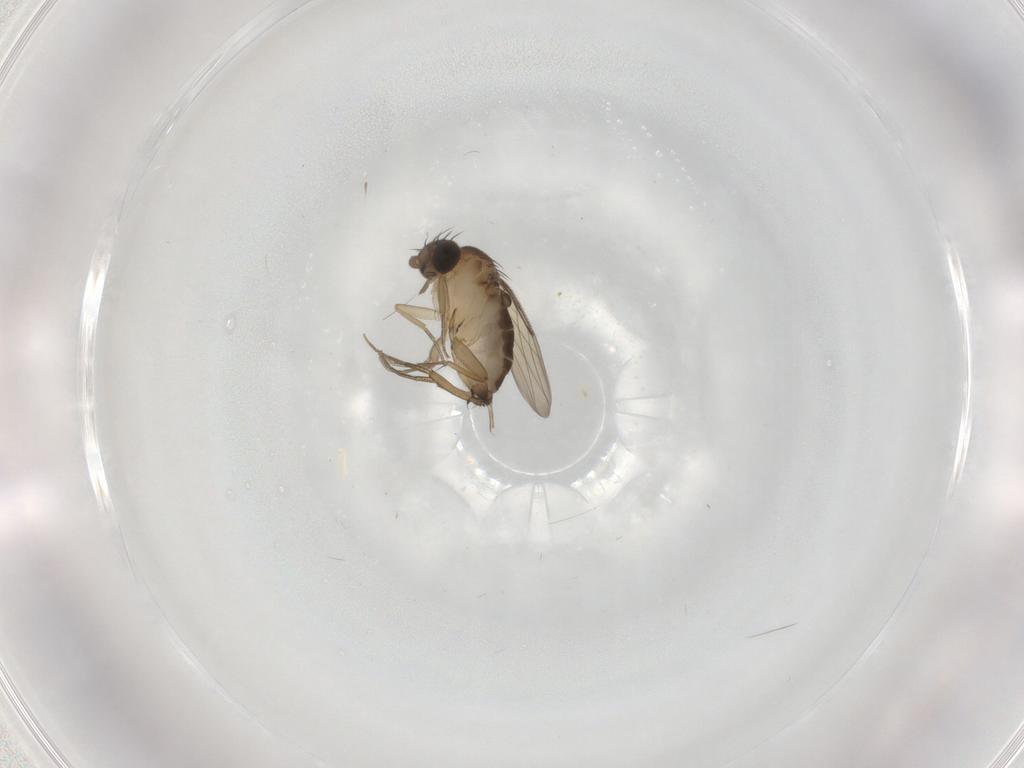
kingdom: Animalia
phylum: Arthropoda
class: Insecta
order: Diptera
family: Phoridae
